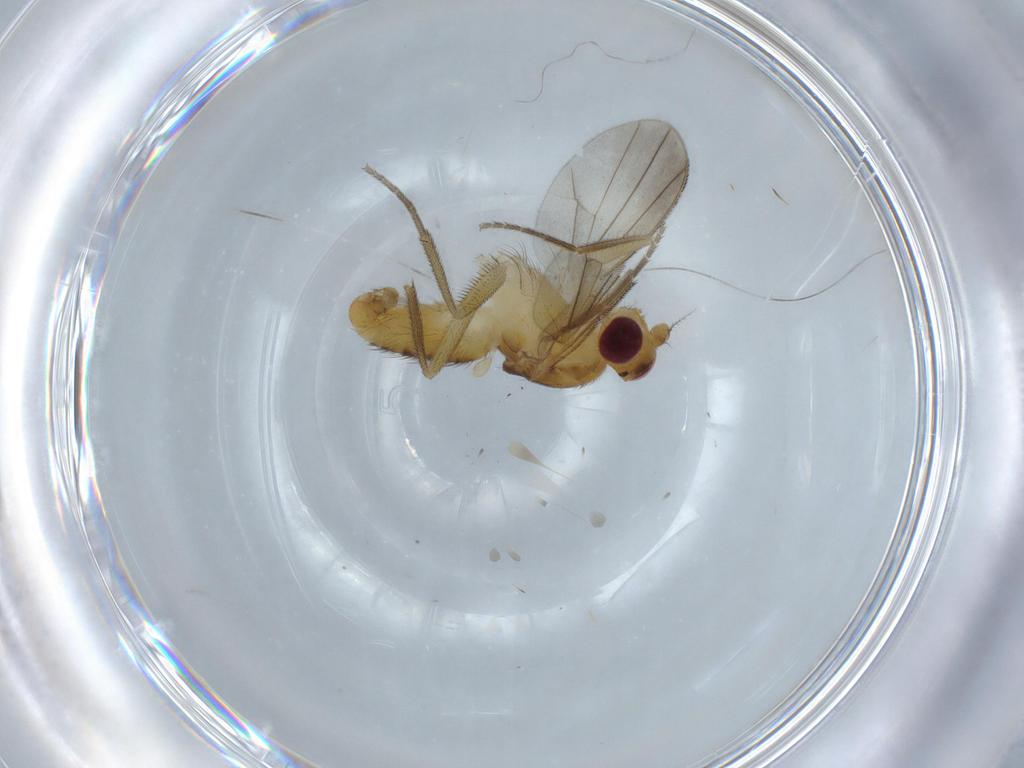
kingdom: Animalia
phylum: Arthropoda
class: Insecta
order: Diptera
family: Clusiidae
